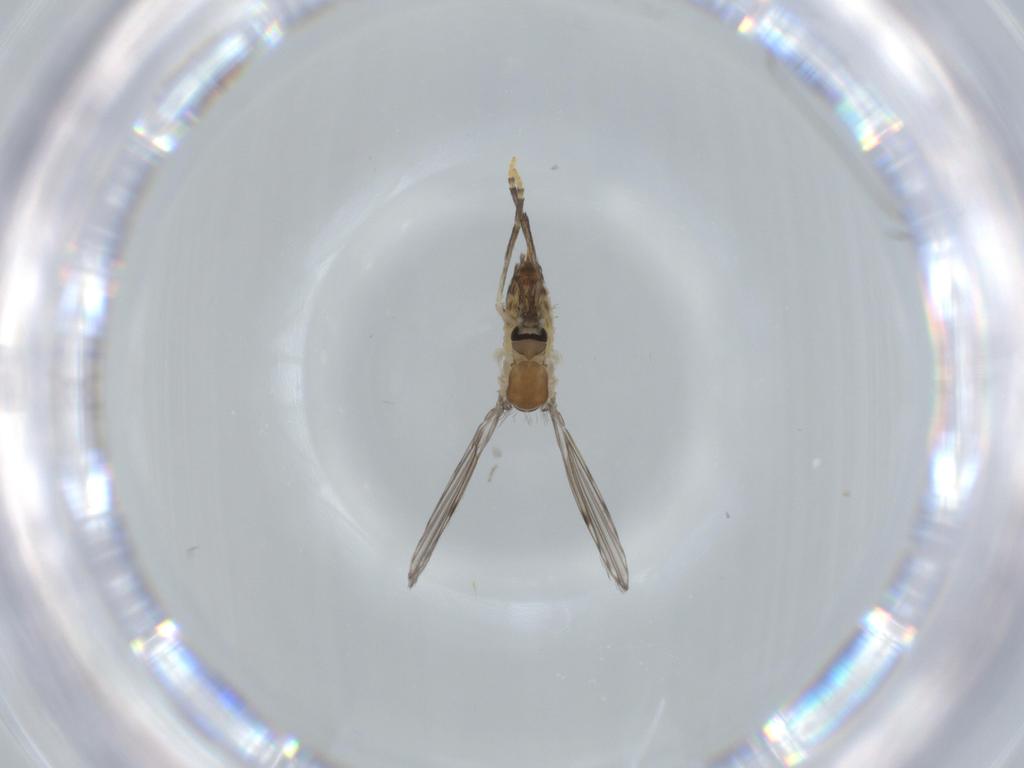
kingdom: Animalia
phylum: Arthropoda
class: Insecta
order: Diptera
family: Psychodidae
